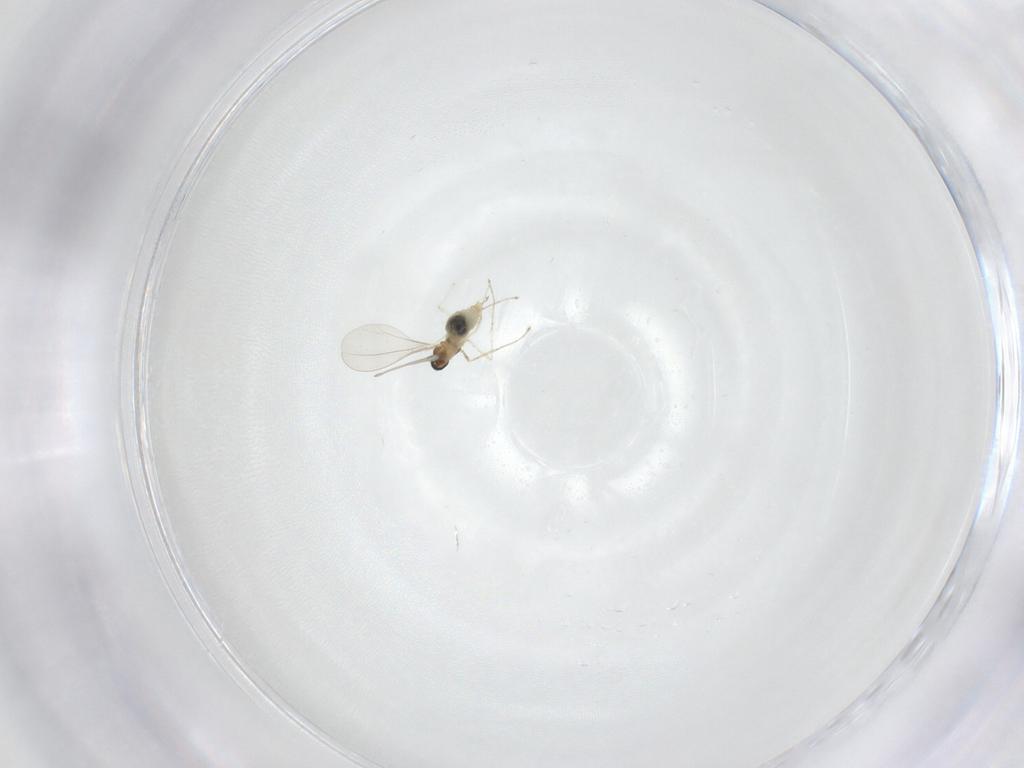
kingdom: Animalia
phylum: Arthropoda
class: Insecta
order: Diptera
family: Cecidomyiidae
